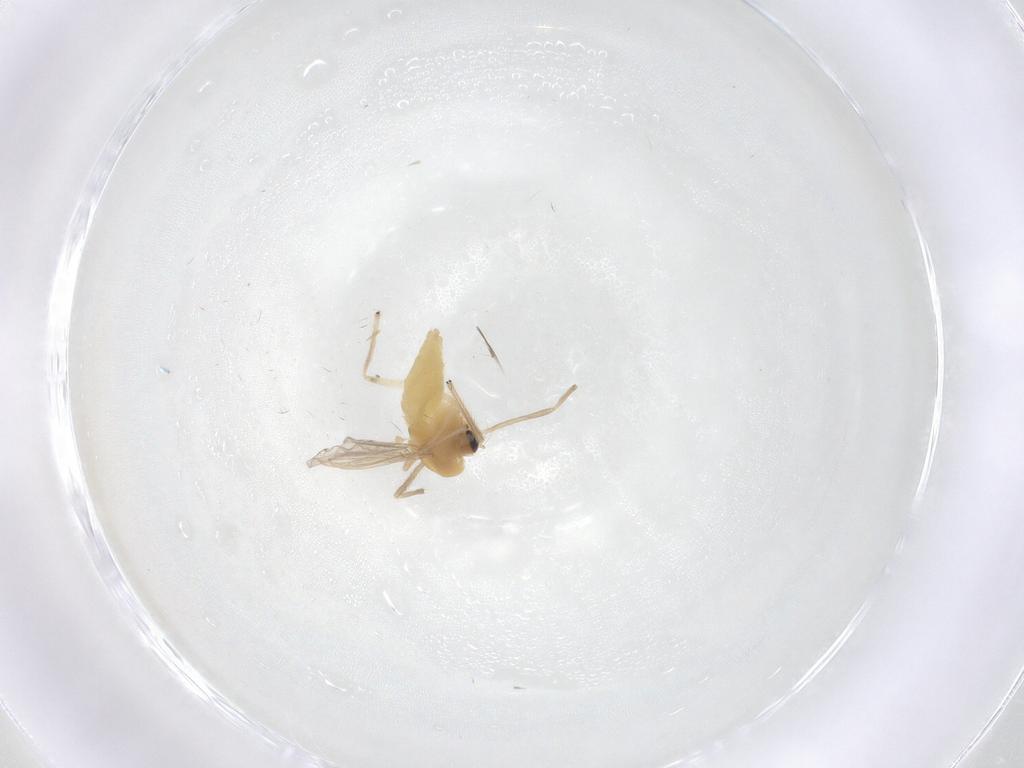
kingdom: Animalia
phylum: Arthropoda
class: Insecta
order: Diptera
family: Cecidomyiidae
